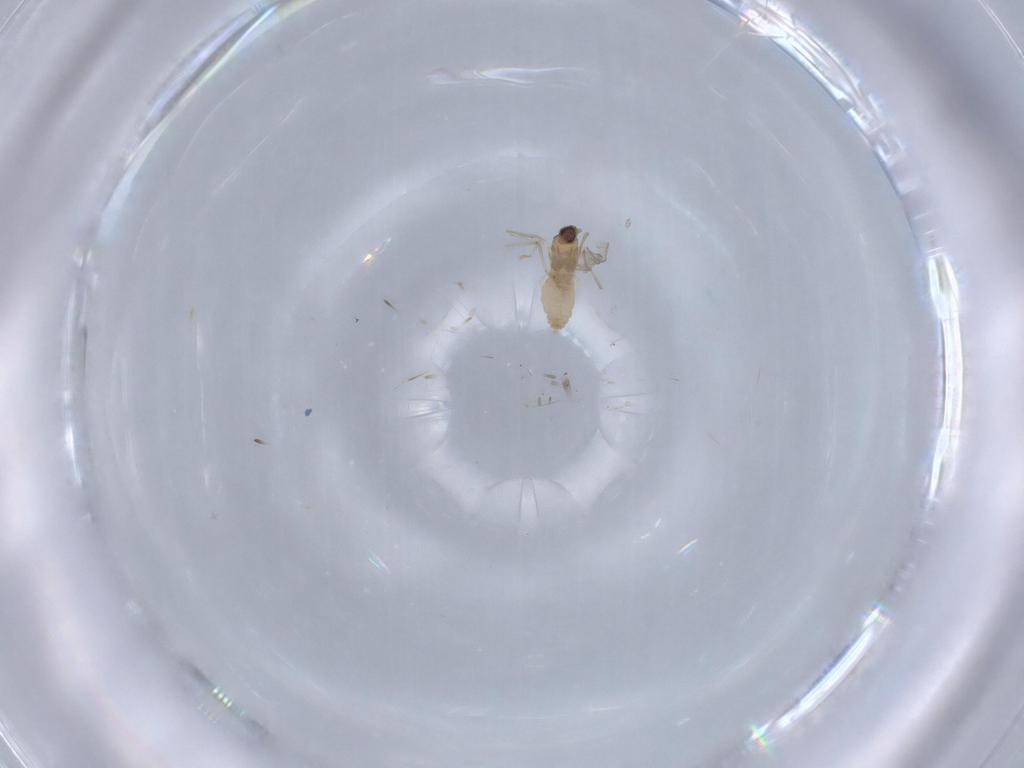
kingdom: Animalia
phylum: Arthropoda
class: Insecta
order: Diptera
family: Cecidomyiidae
